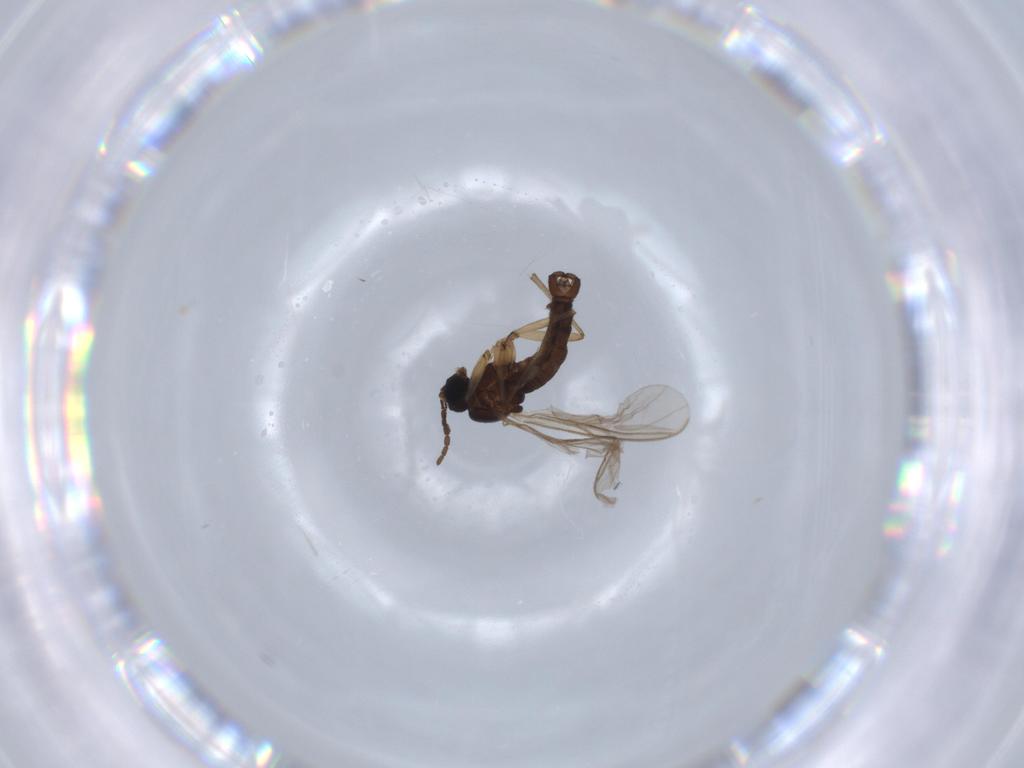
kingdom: Animalia
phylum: Arthropoda
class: Insecta
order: Diptera
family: Sciaridae
